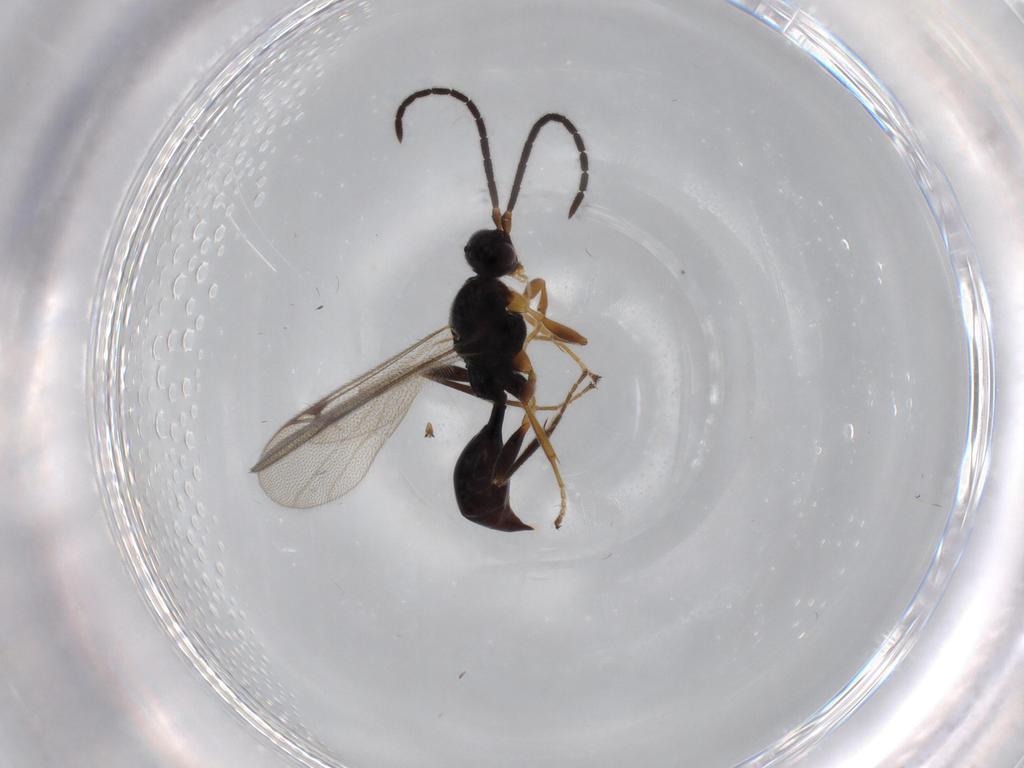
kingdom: Animalia
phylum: Arthropoda
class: Insecta
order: Hymenoptera
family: Proctotrupidae
